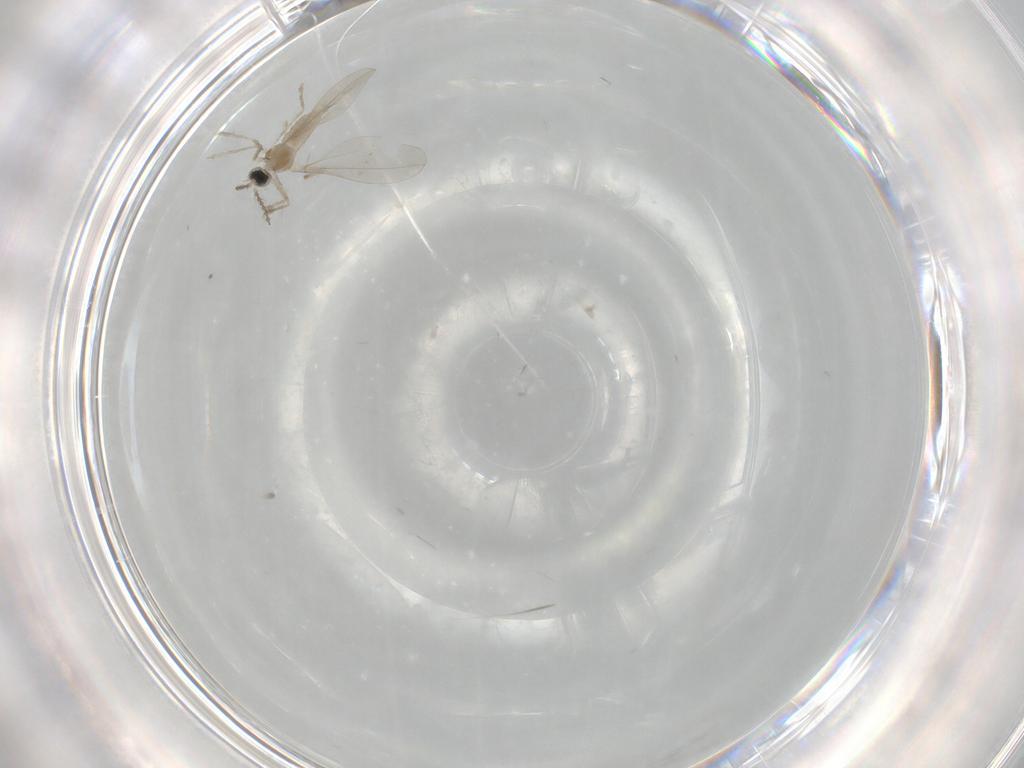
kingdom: Animalia
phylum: Arthropoda
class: Insecta
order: Diptera
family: Cecidomyiidae
